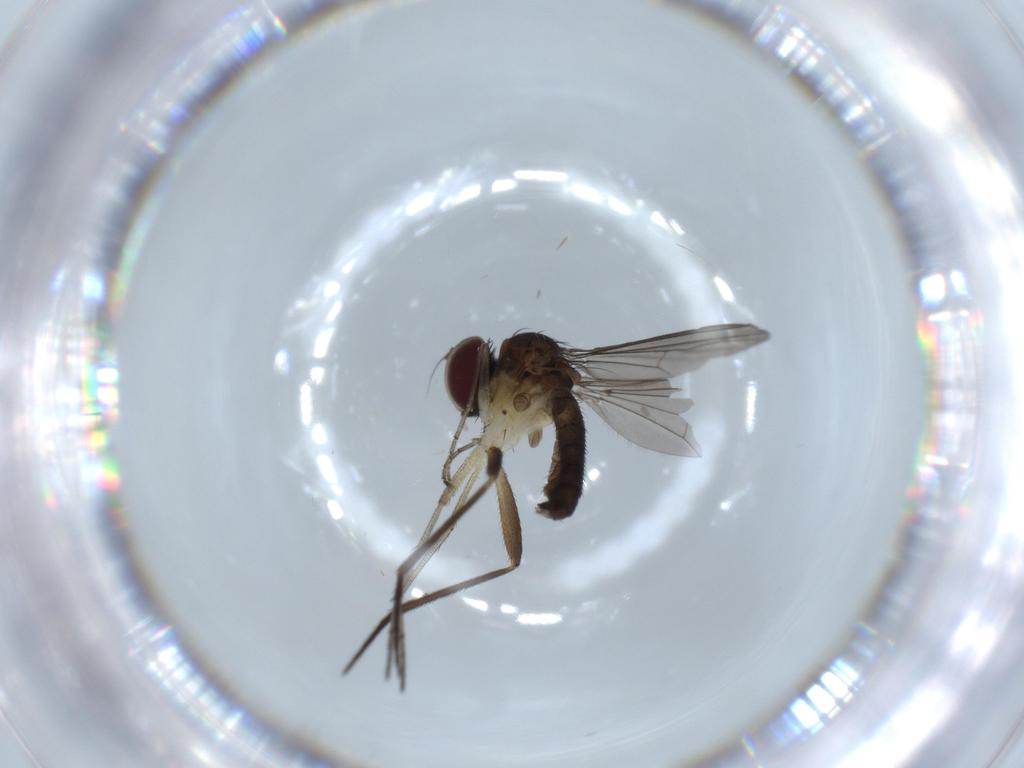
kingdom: Animalia
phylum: Arthropoda
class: Insecta
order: Diptera
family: Dolichopodidae
